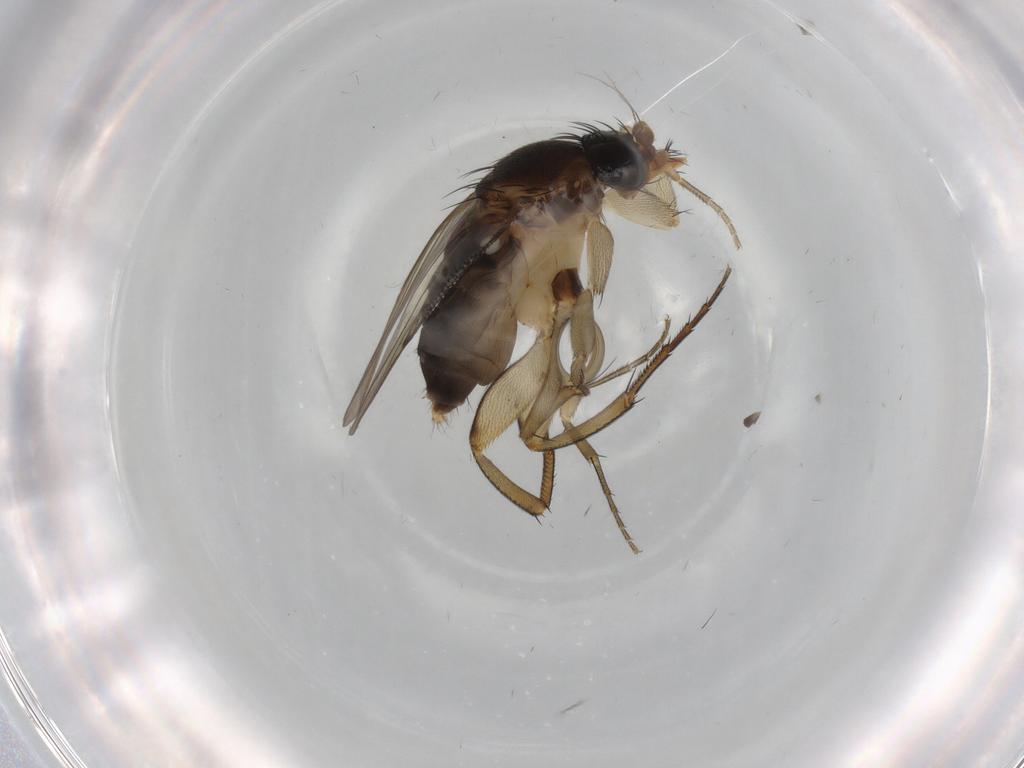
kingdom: Animalia
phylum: Arthropoda
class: Insecta
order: Diptera
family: Phoridae
